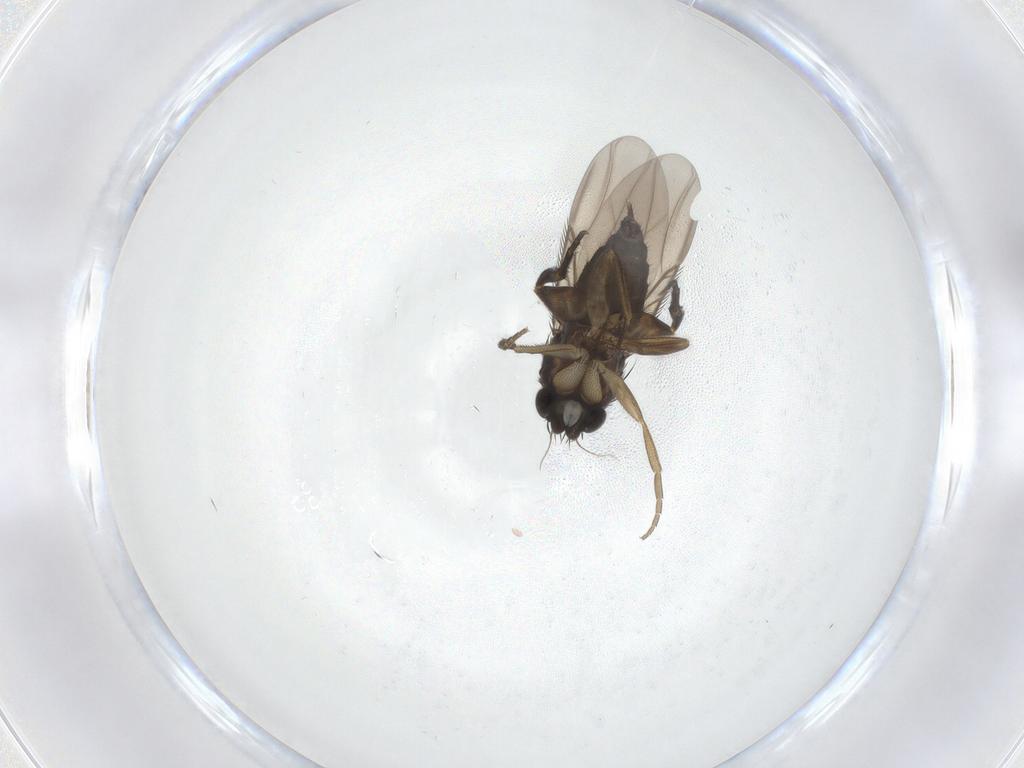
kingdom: Animalia
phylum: Arthropoda
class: Insecta
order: Diptera
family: Phoridae
